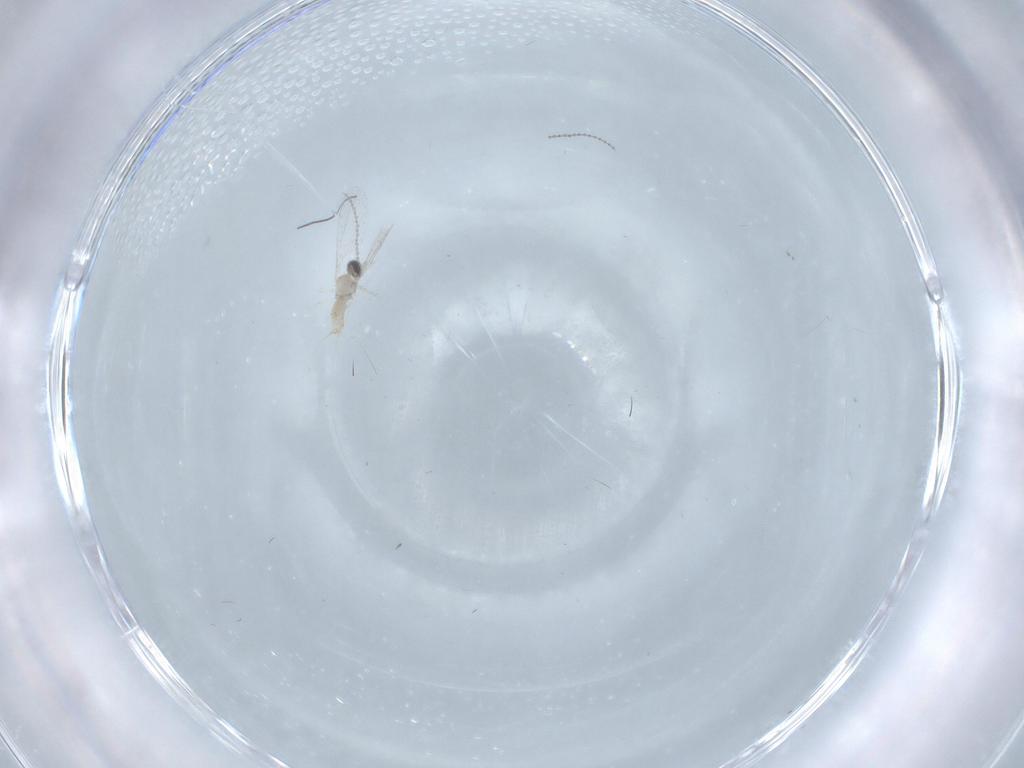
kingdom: Animalia
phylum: Arthropoda
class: Insecta
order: Diptera
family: Cecidomyiidae
